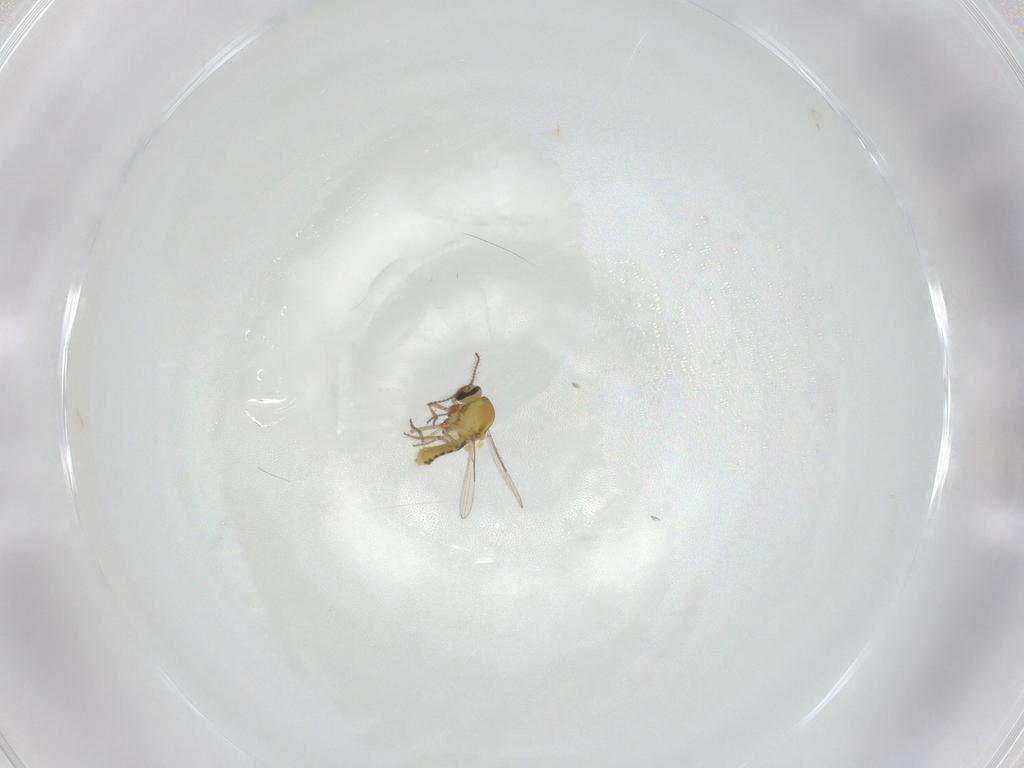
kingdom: Animalia
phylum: Arthropoda
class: Insecta
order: Diptera
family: Ceratopogonidae
